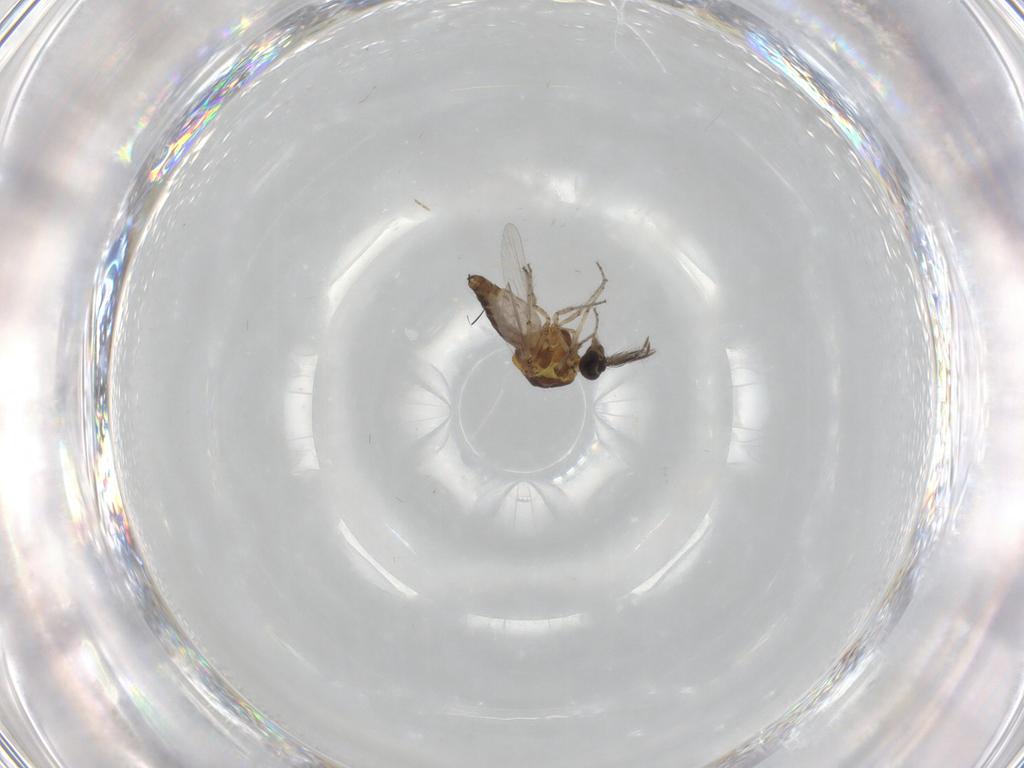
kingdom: Animalia
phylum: Arthropoda
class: Insecta
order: Diptera
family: Ceratopogonidae
